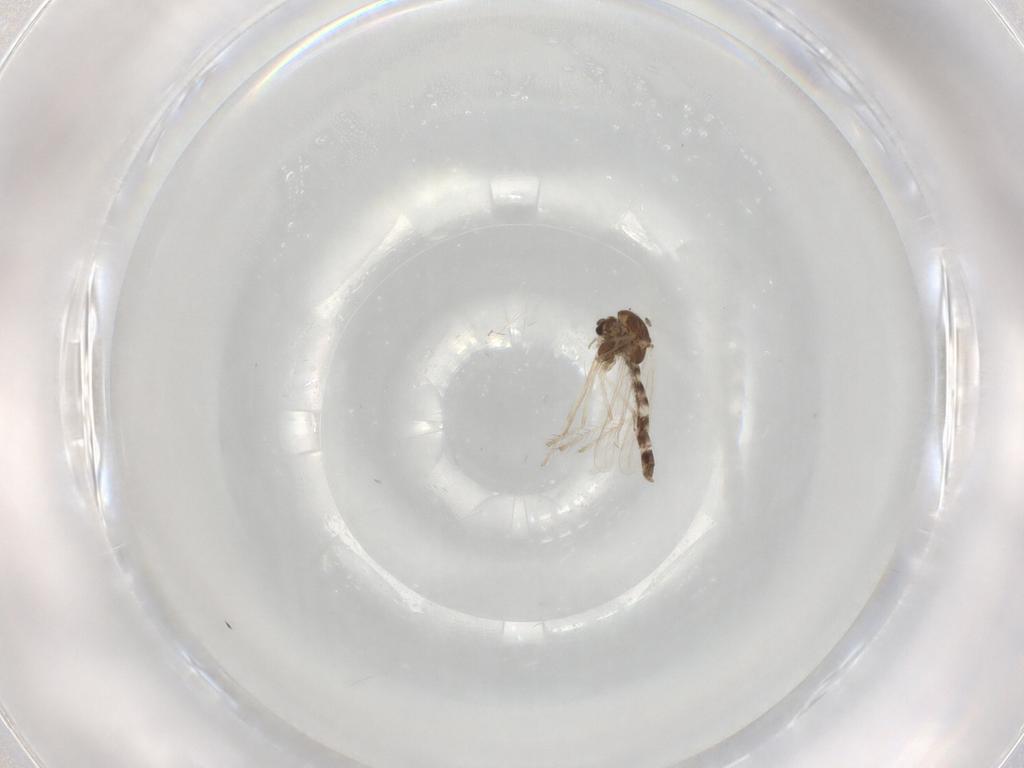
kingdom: Animalia
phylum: Arthropoda
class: Insecta
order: Diptera
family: Chironomidae
